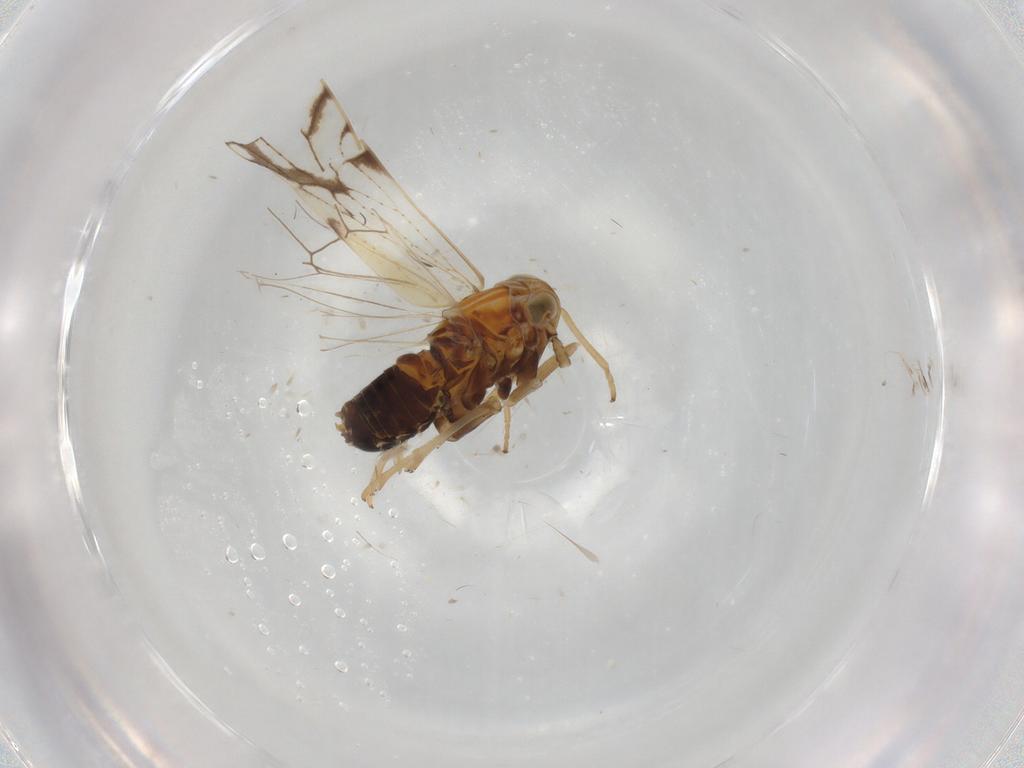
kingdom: Animalia
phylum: Arthropoda
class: Insecta
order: Hemiptera
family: Delphacidae
